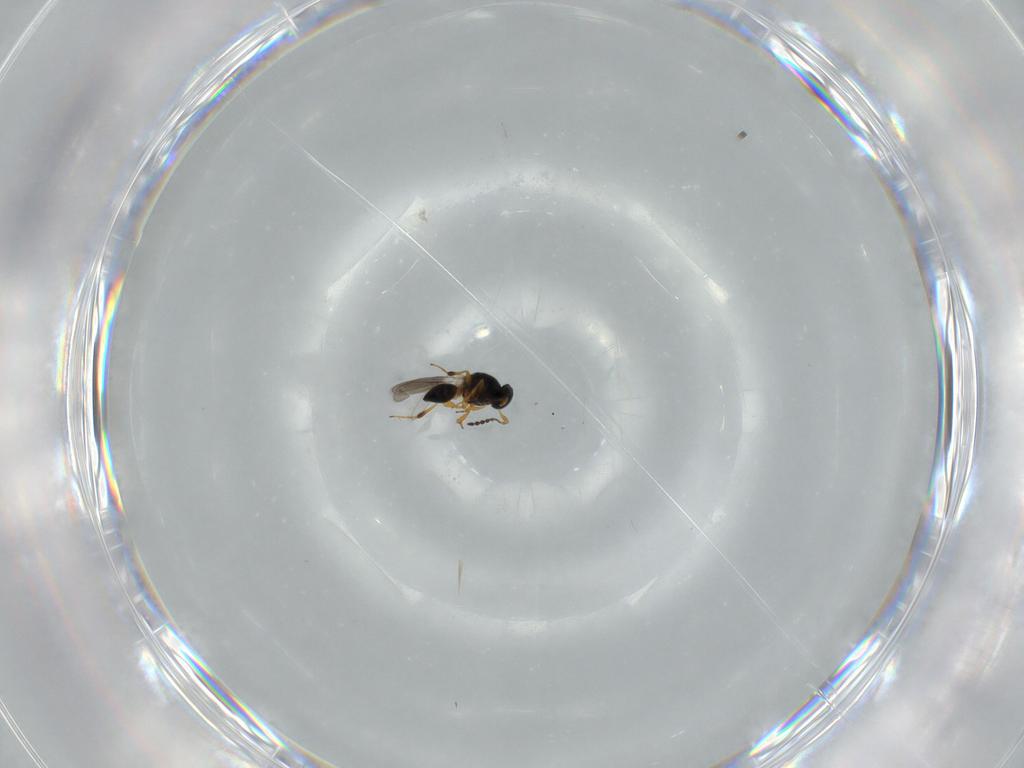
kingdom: Animalia
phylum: Arthropoda
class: Insecta
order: Hymenoptera
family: Platygastridae
